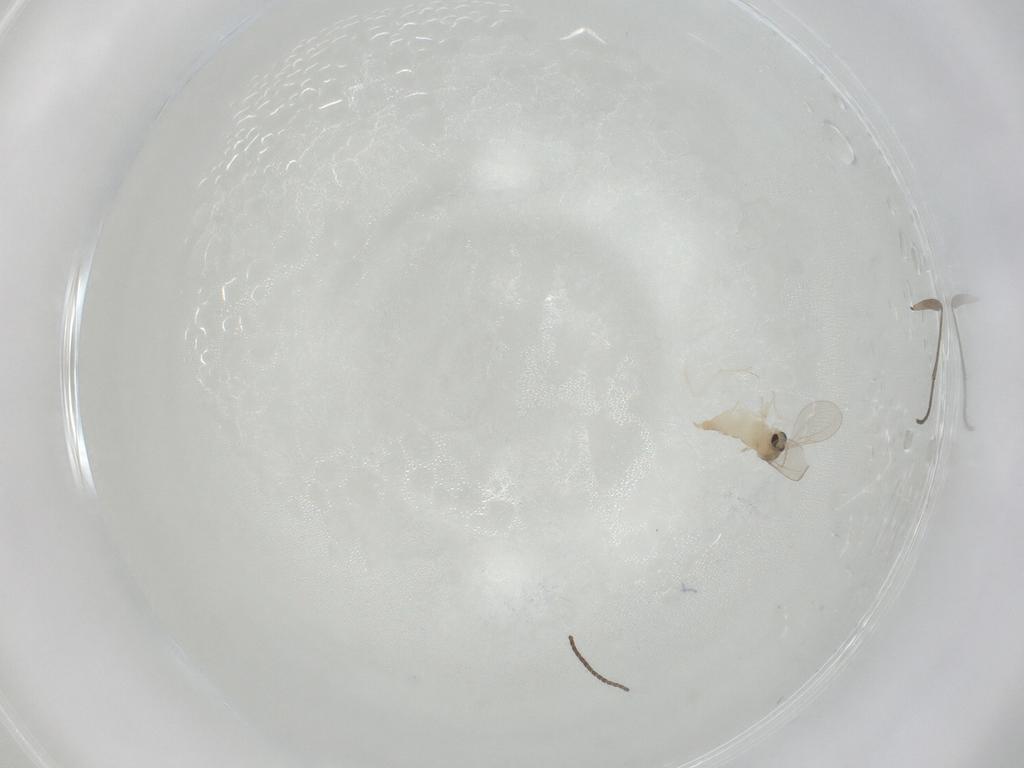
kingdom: Animalia
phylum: Arthropoda
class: Insecta
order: Diptera
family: Cecidomyiidae
